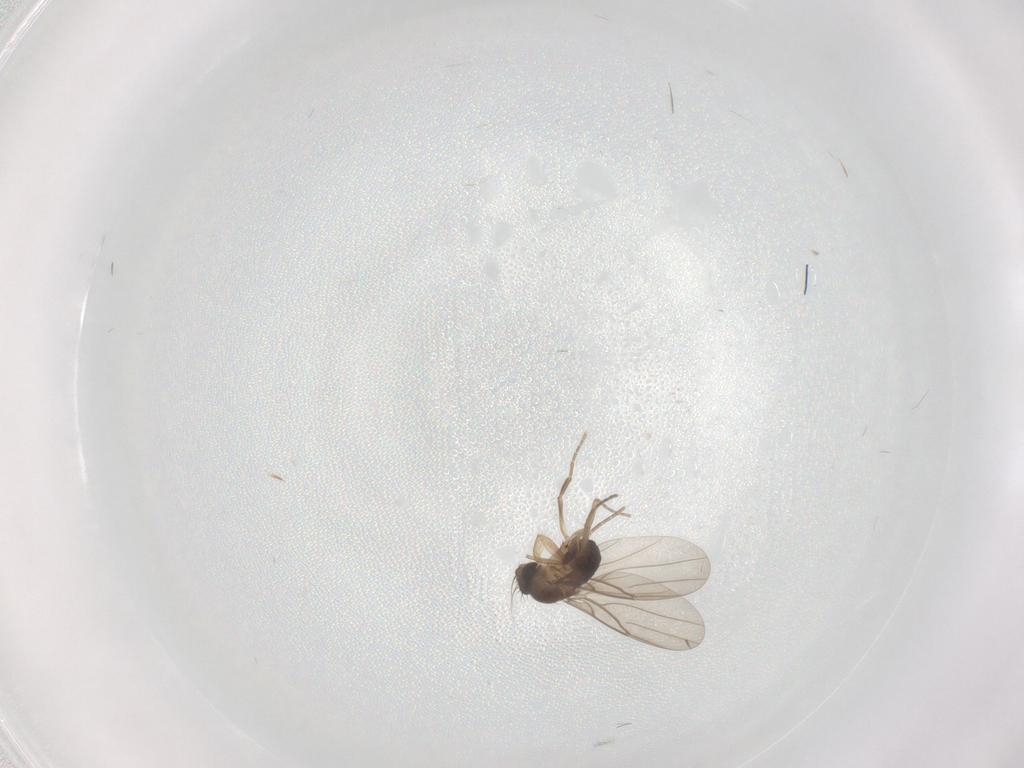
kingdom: Animalia
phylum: Arthropoda
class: Insecta
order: Diptera
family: Phoridae
